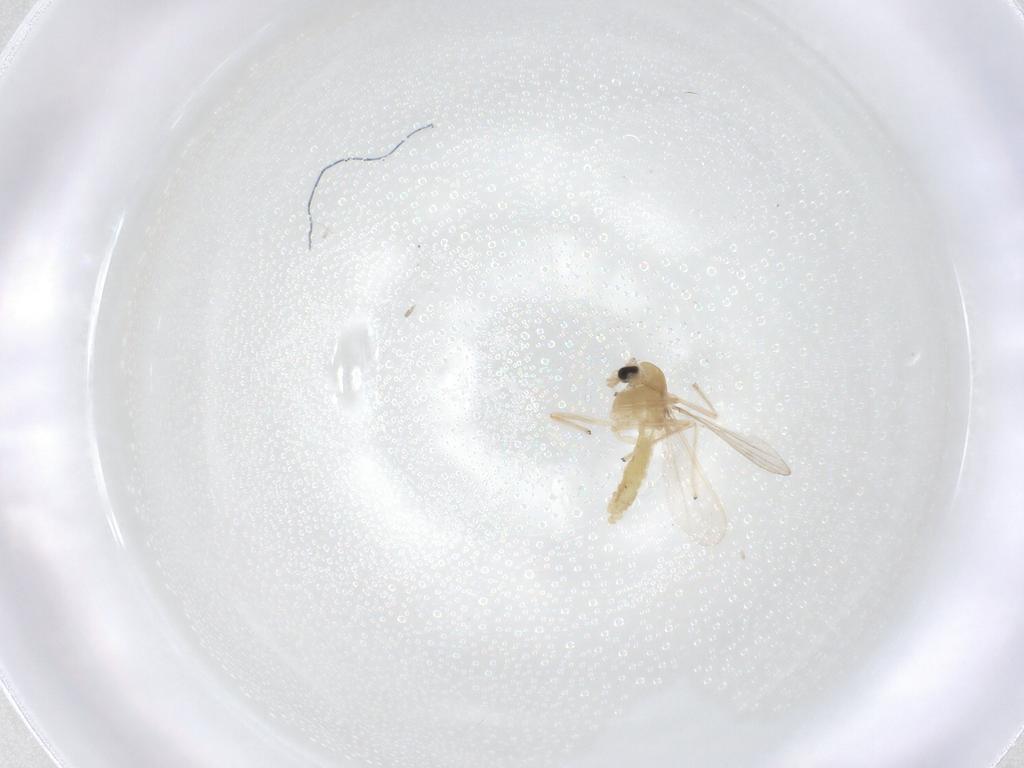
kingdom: Animalia
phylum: Arthropoda
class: Insecta
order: Diptera
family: Chironomidae
